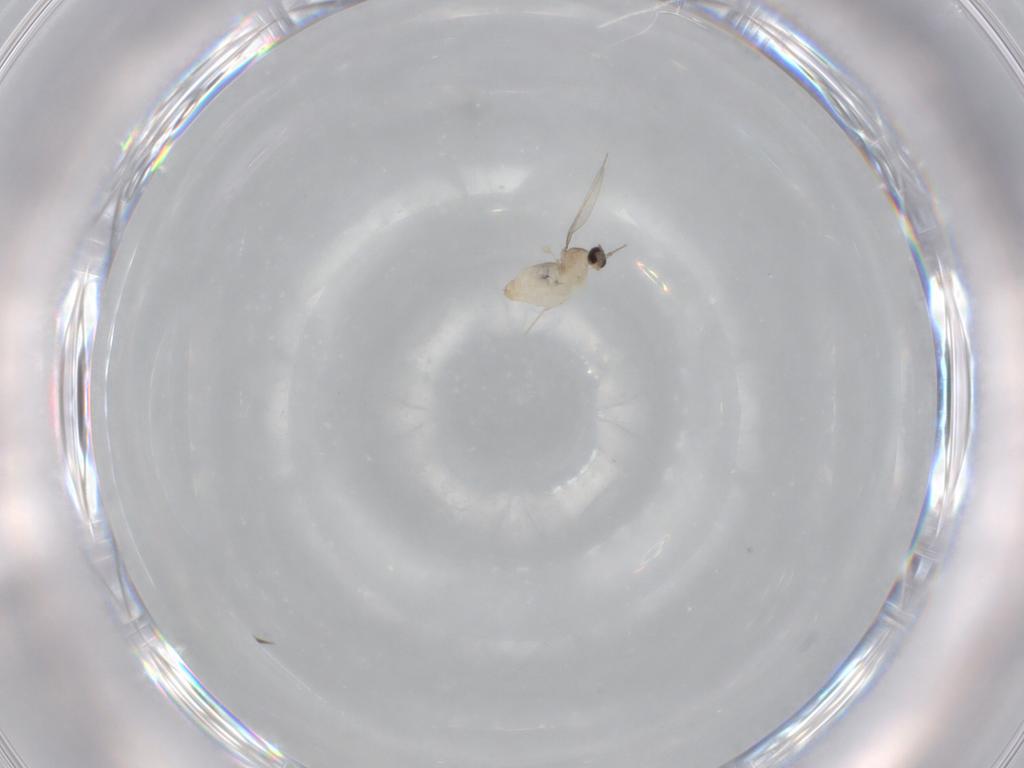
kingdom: Animalia
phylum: Arthropoda
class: Insecta
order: Diptera
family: Cecidomyiidae
